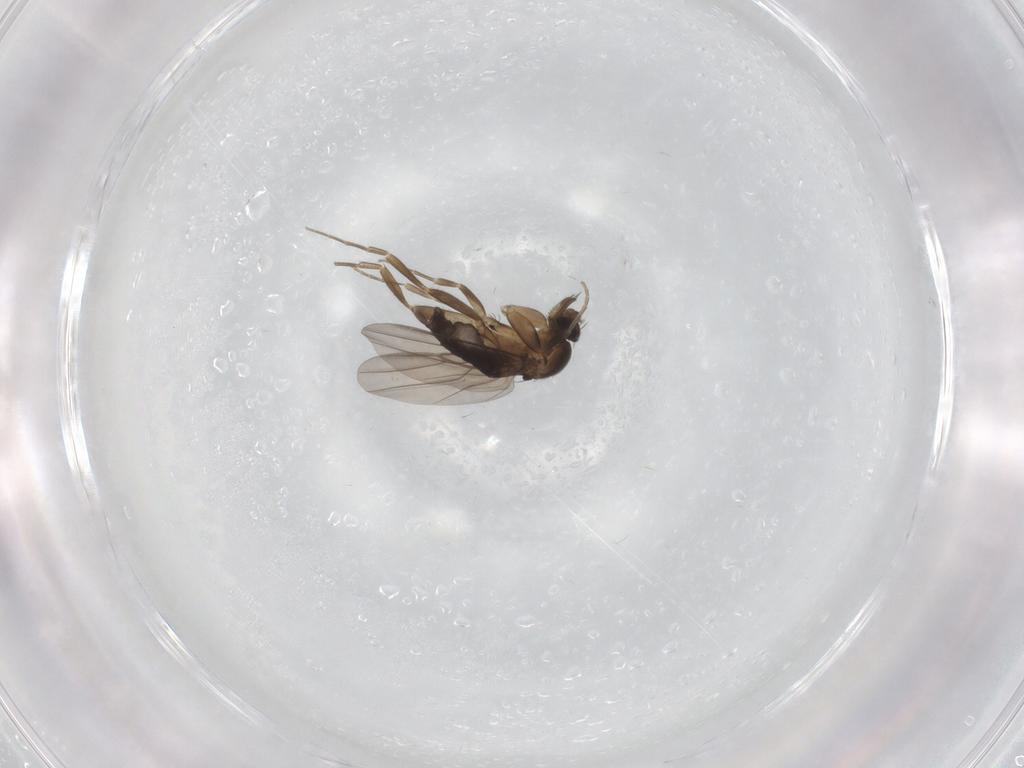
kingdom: Animalia
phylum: Arthropoda
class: Insecta
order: Diptera
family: Phoridae
